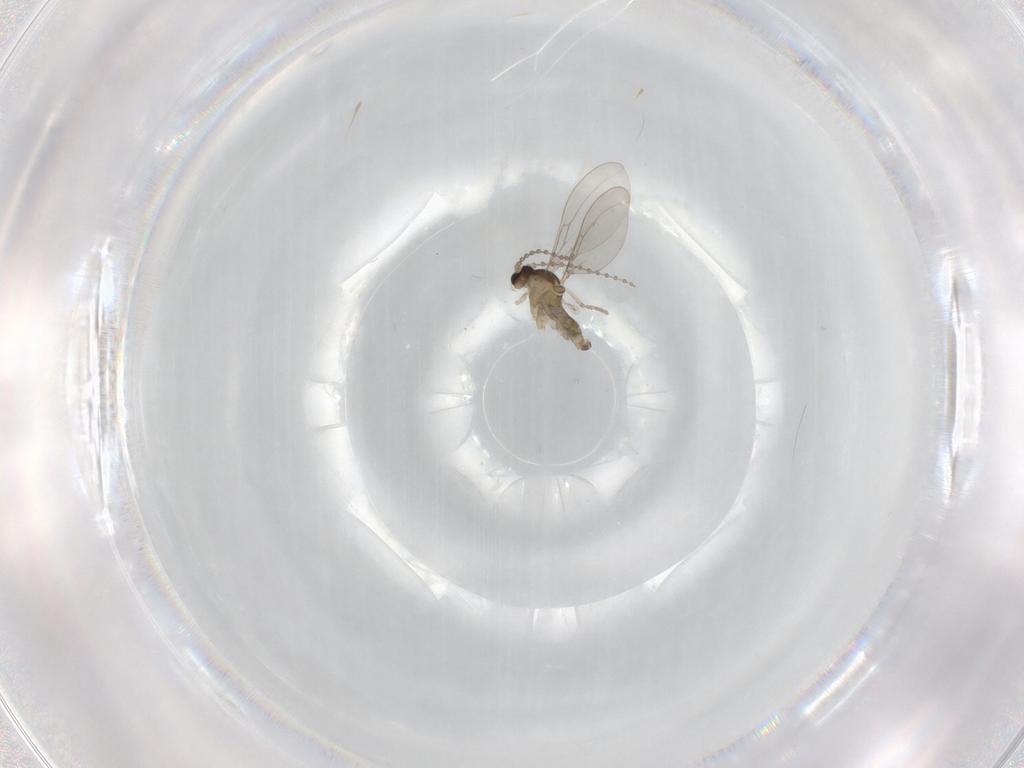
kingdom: Animalia
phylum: Arthropoda
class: Insecta
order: Diptera
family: Cecidomyiidae
